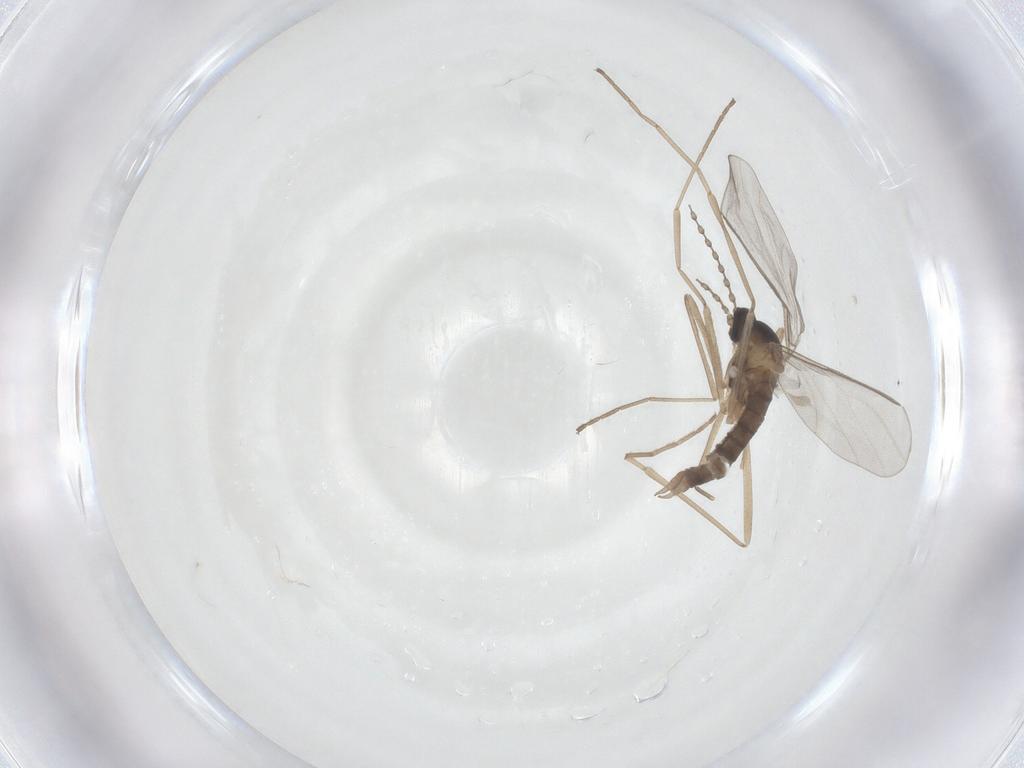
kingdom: Animalia
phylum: Arthropoda
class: Insecta
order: Diptera
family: Cecidomyiidae
